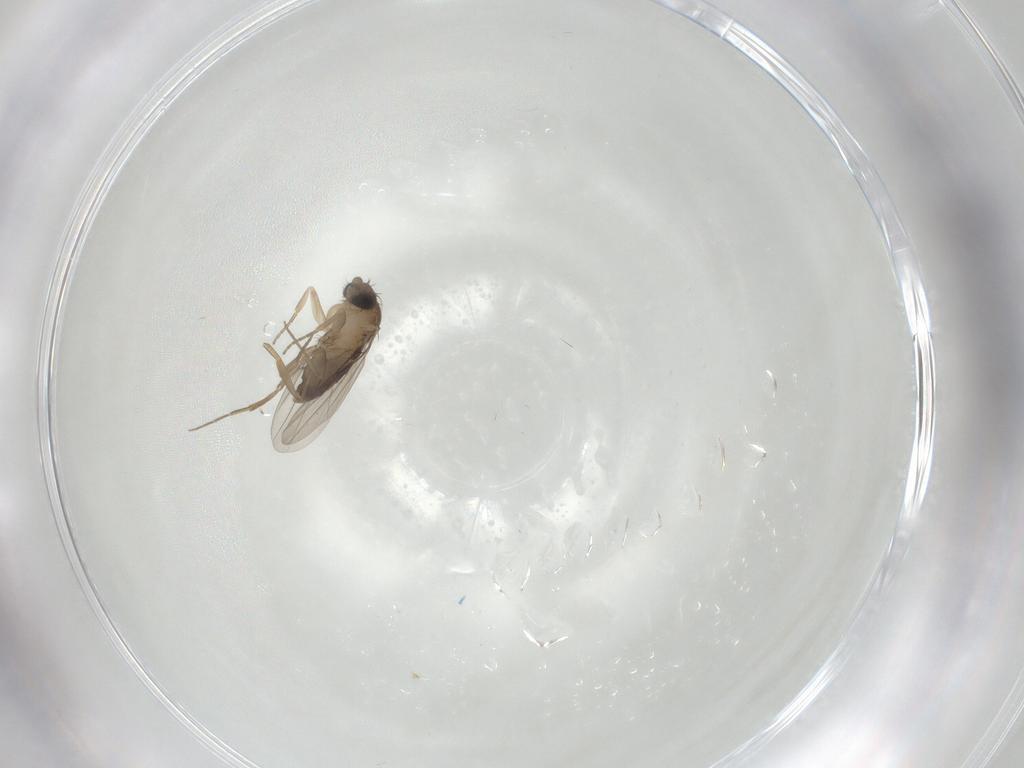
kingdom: Animalia
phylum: Arthropoda
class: Insecta
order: Diptera
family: Phoridae
